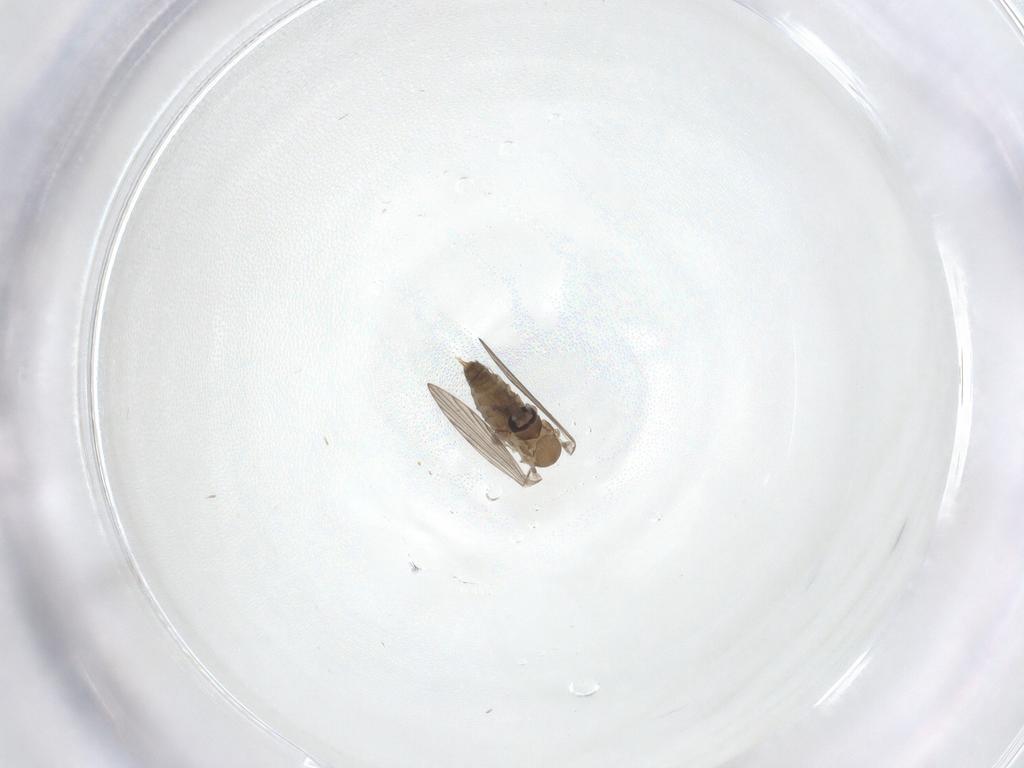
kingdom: Animalia
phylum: Arthropoda
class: Insecta
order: Diptera
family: Psychodidae
